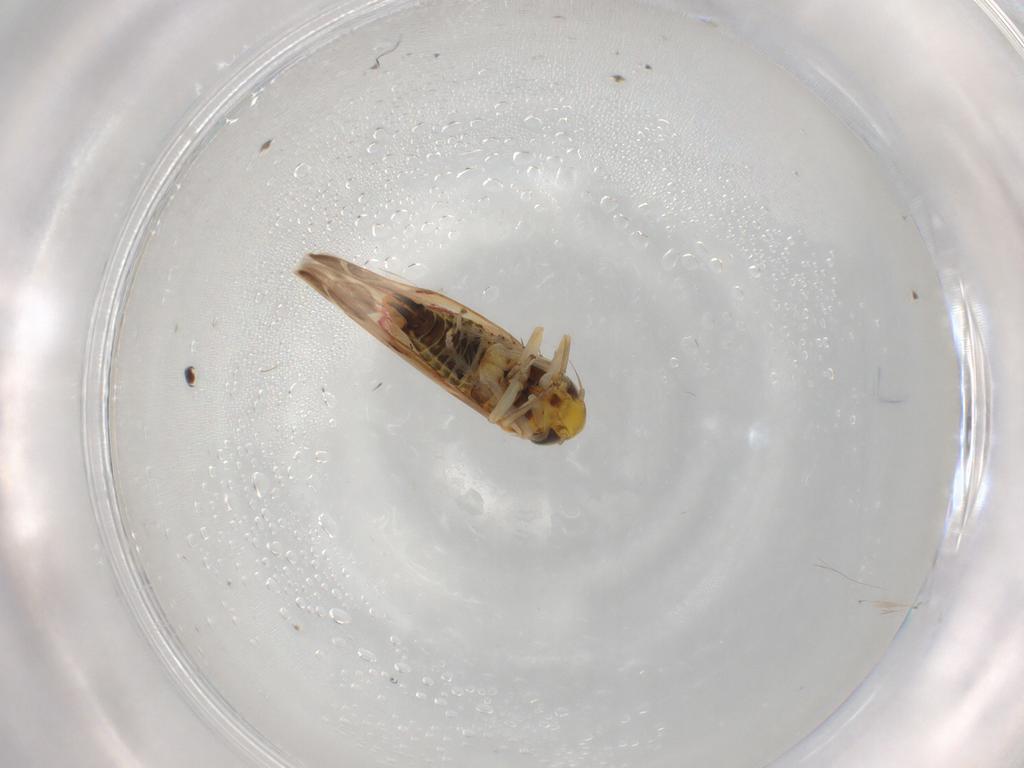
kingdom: Animalia
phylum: Arthropoda
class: Insecta
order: Hemiptera
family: Cicadellidae
